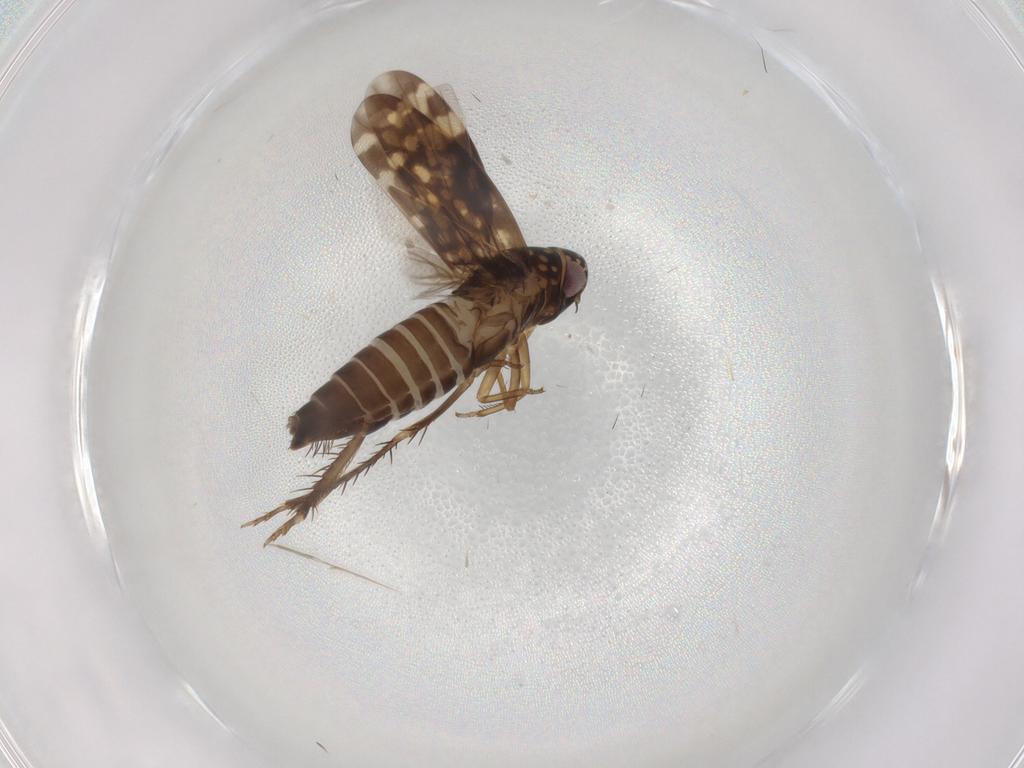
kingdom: Animalia
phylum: Arthropoda
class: Insecta
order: Hemiptera
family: Cicadellidae
